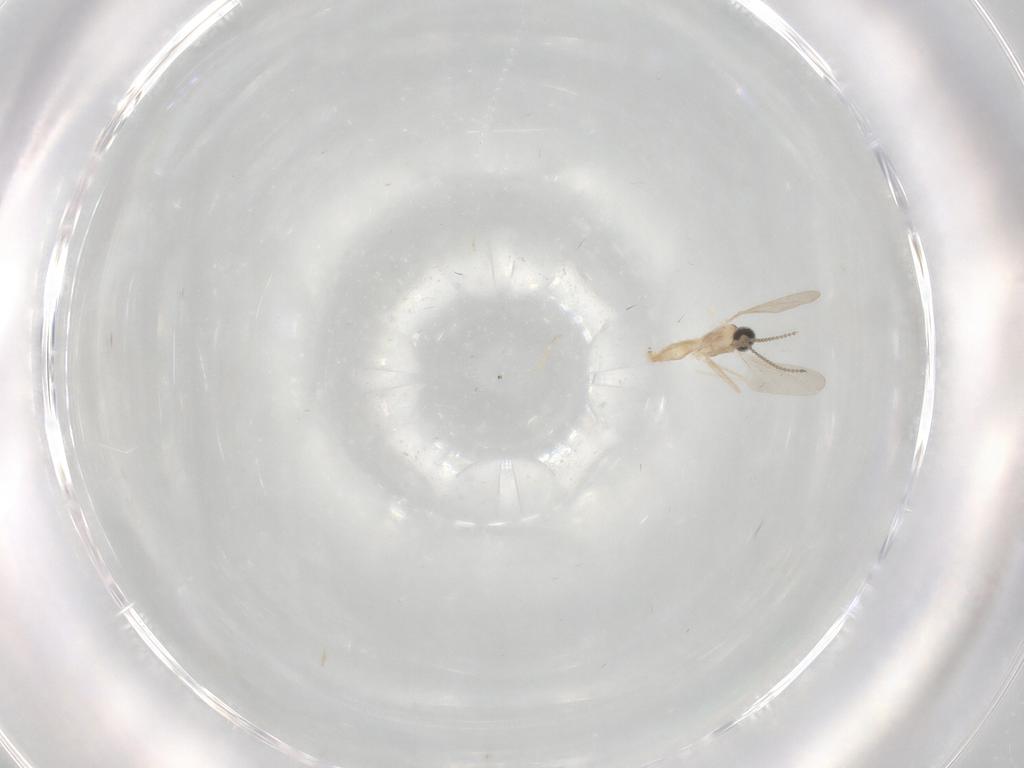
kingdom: Animalia
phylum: Arthropoda
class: Insecta
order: Diptera
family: Cecidomyiidae
